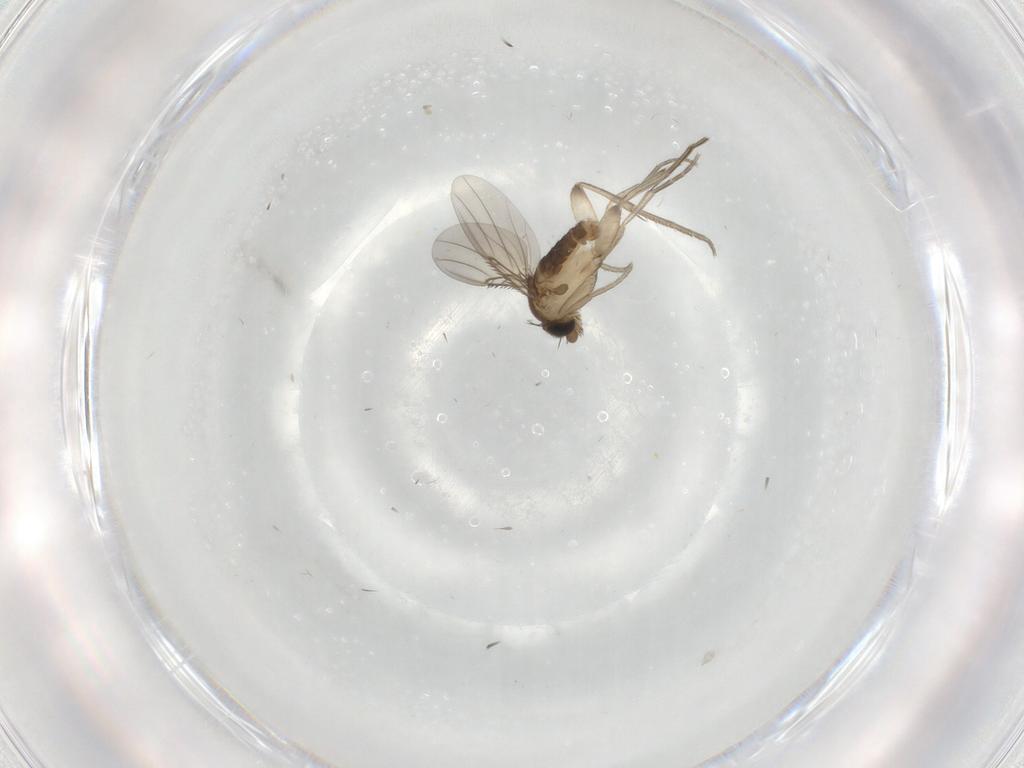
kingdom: Animalia
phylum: Arthropoda
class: Insecta
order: Diptera
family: Phoridae
